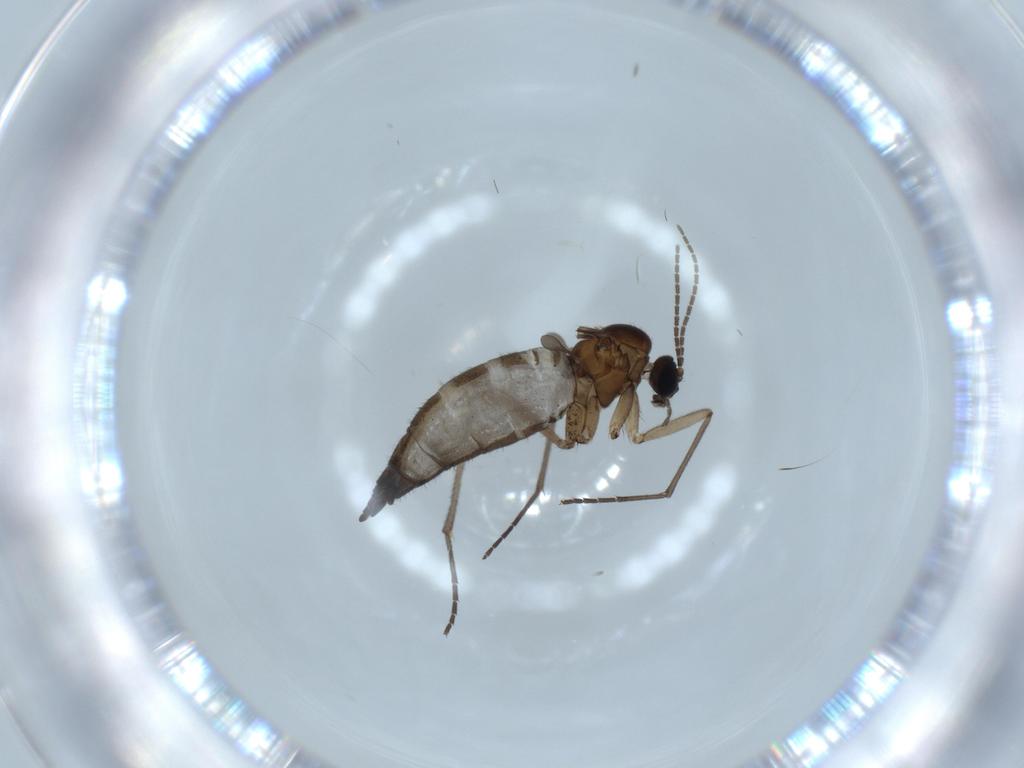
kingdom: Animalia
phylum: Arthropoda
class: Insecta
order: Diptera
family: Sciaridae
